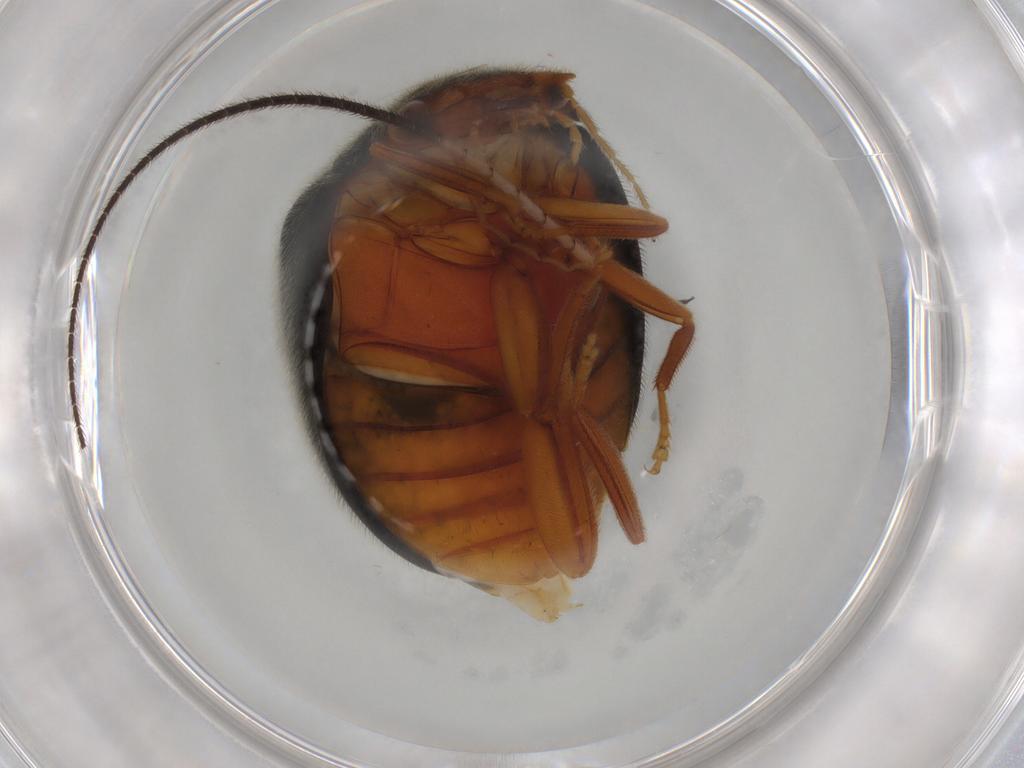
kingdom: Animalia
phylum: Arthropoda
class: Insecta
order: Coleoptera
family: Scirtidae
